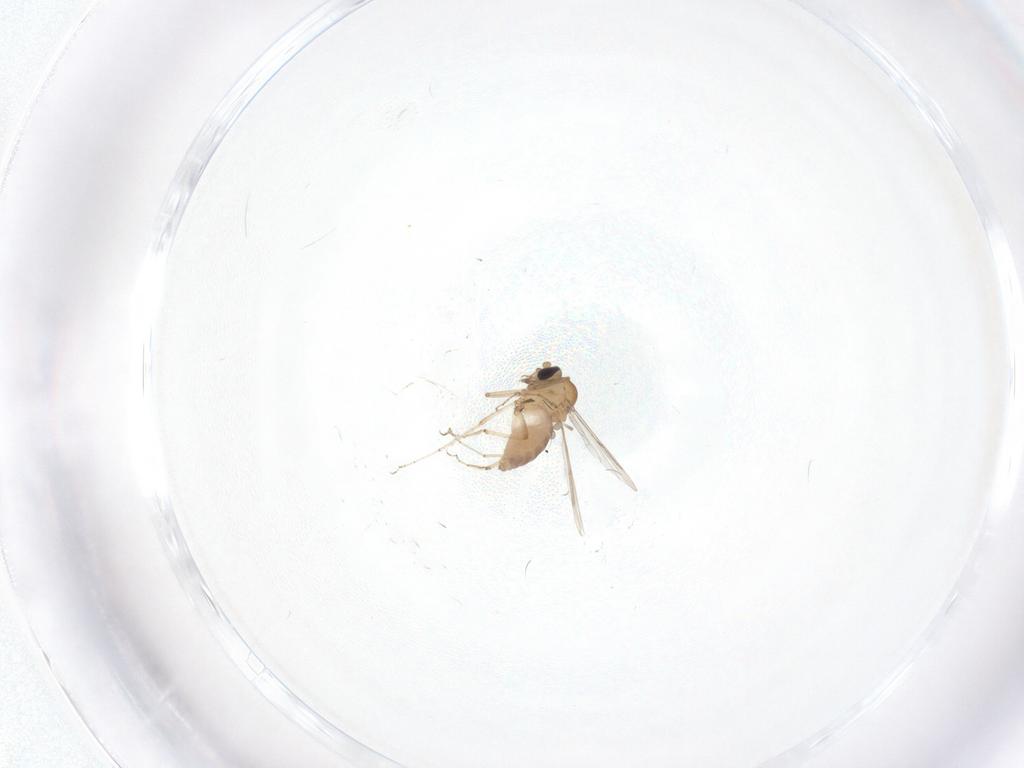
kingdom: Animalia
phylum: Arthropoda
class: Insecta
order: Diptera
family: Ceratopogonidae
